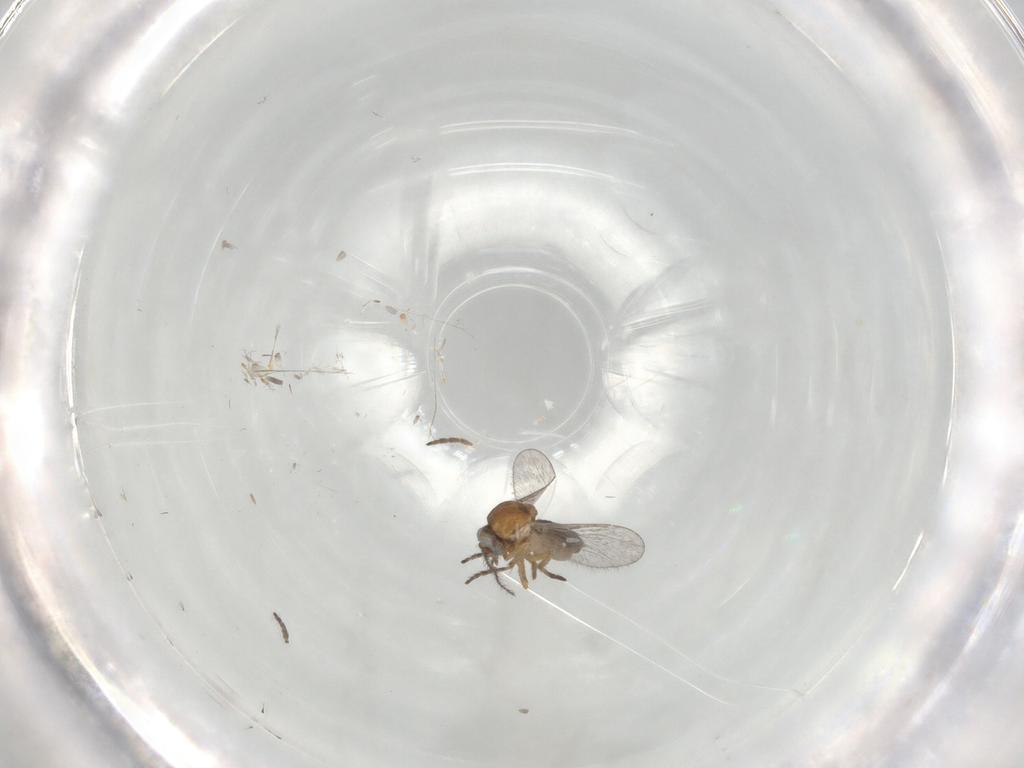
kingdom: Animalia
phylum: Arthropoda
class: Insecta
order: Diptera
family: Ceratopogonidae
